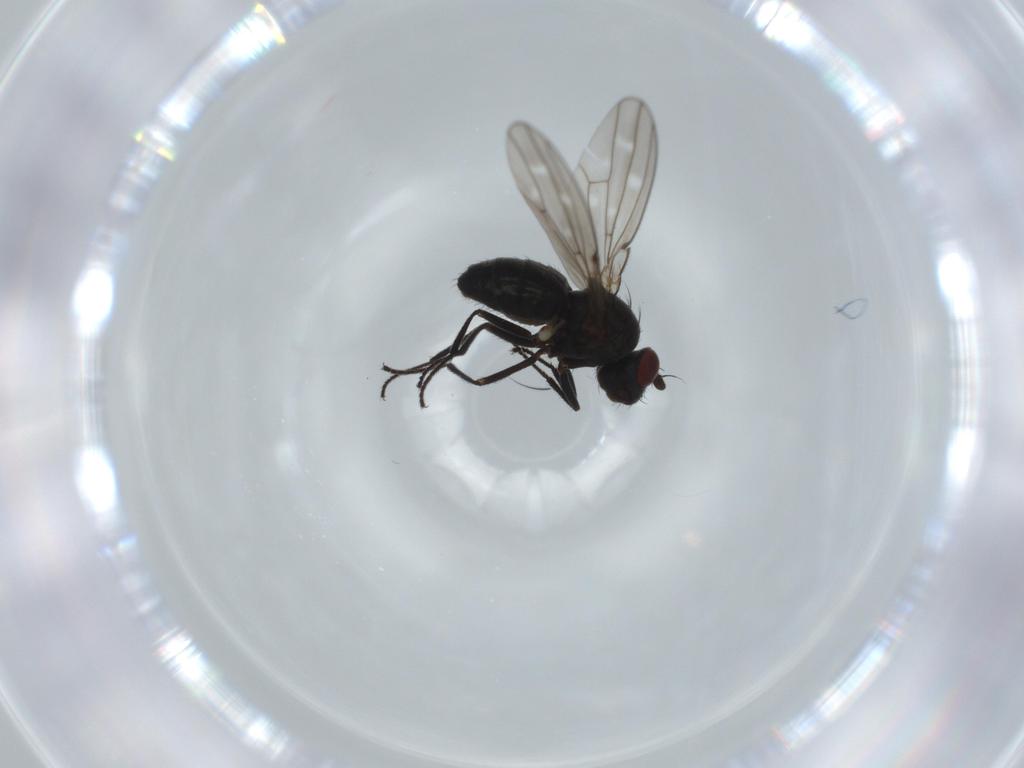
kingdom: Animalia
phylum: Arthropoda
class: Insecta
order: Diptera
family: Ephydridae
